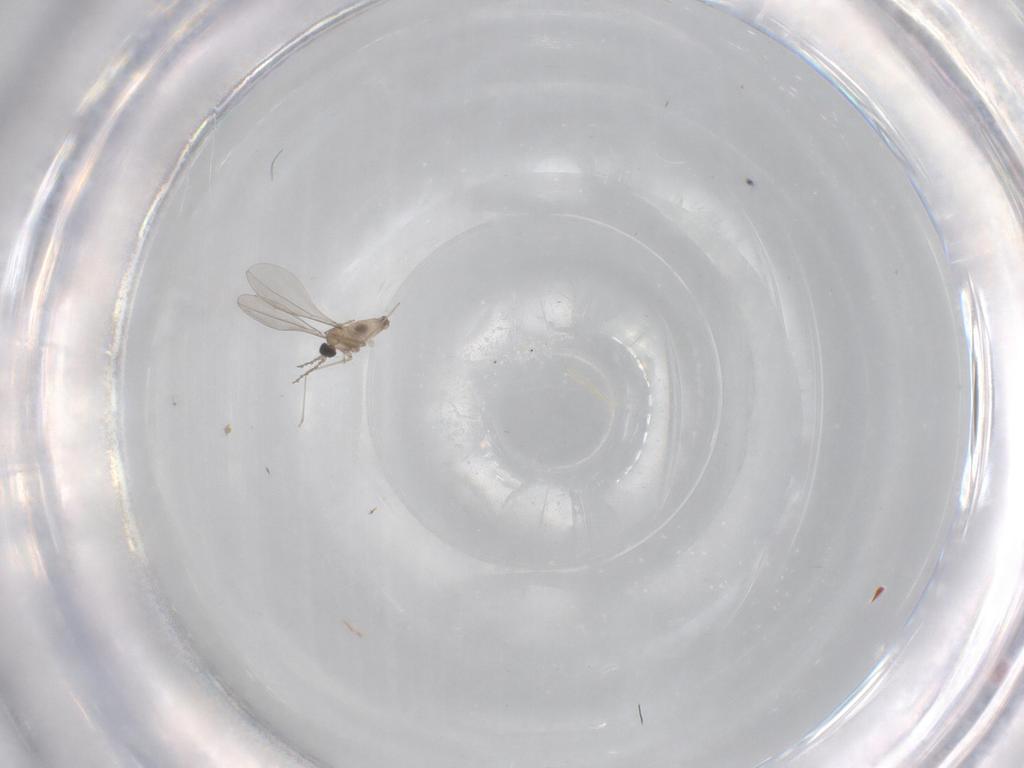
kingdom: Animalia
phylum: Arthropoda
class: Insecta
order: Diptera
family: Cecidomyiidae
